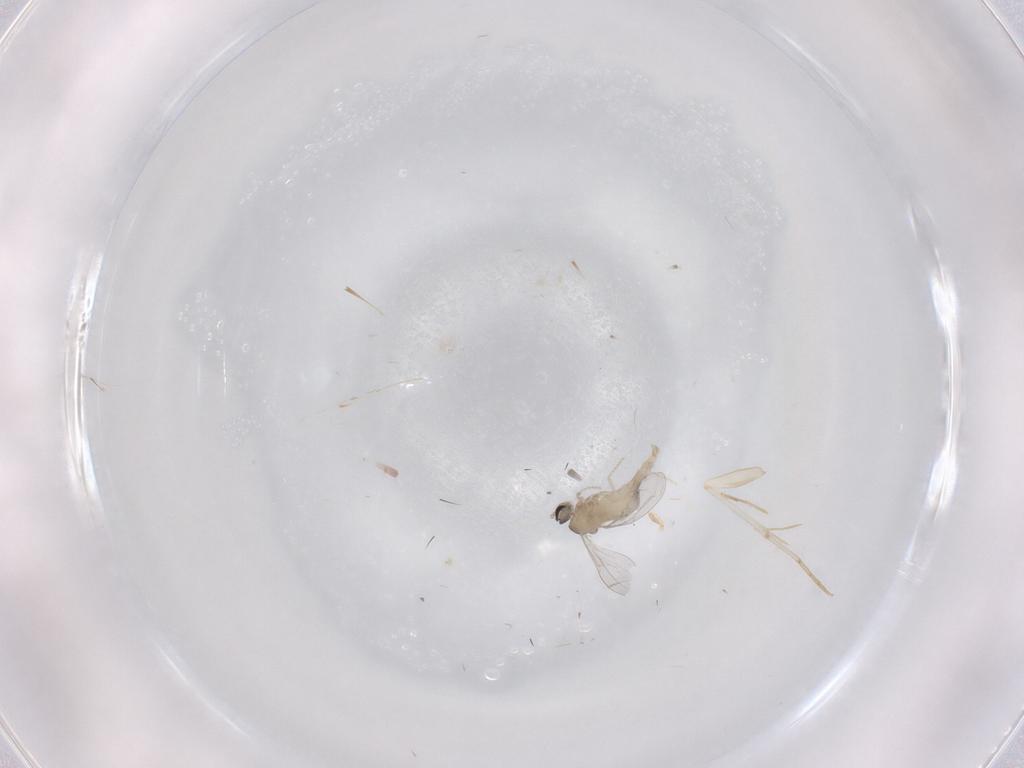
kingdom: Animalia
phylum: Arthropoda
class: Insecta
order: Diptera
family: Cecidomyiidae
